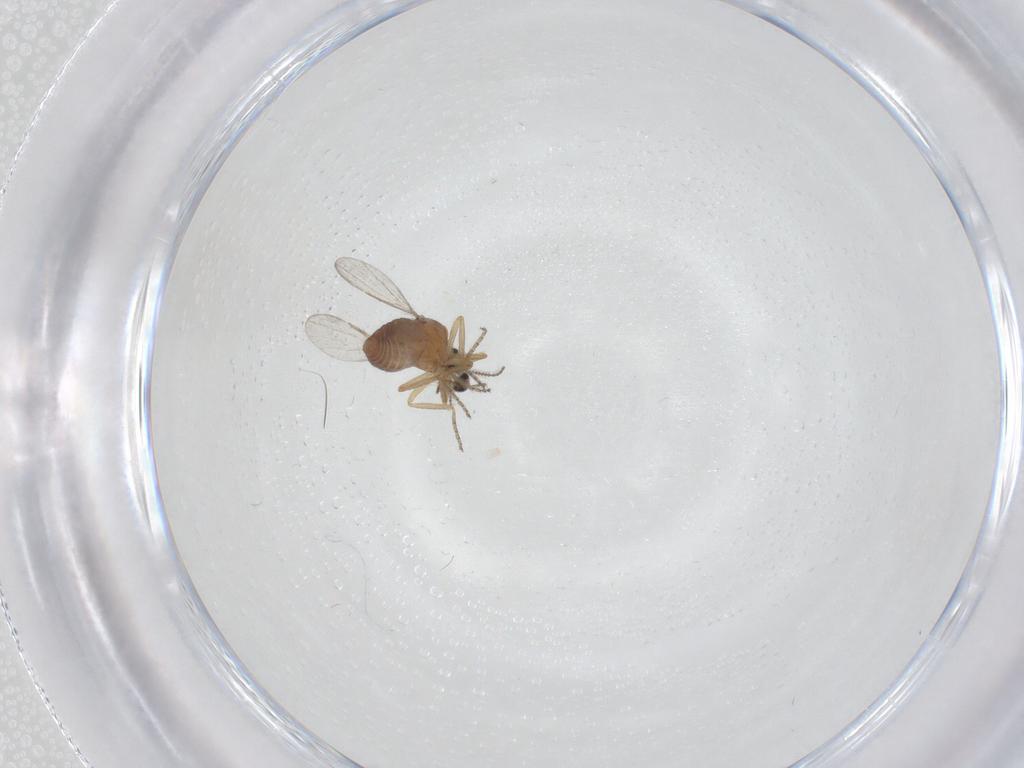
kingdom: Animalia
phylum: Arthropoda
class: Insecta
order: Diptera
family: Ceratopogonidae
